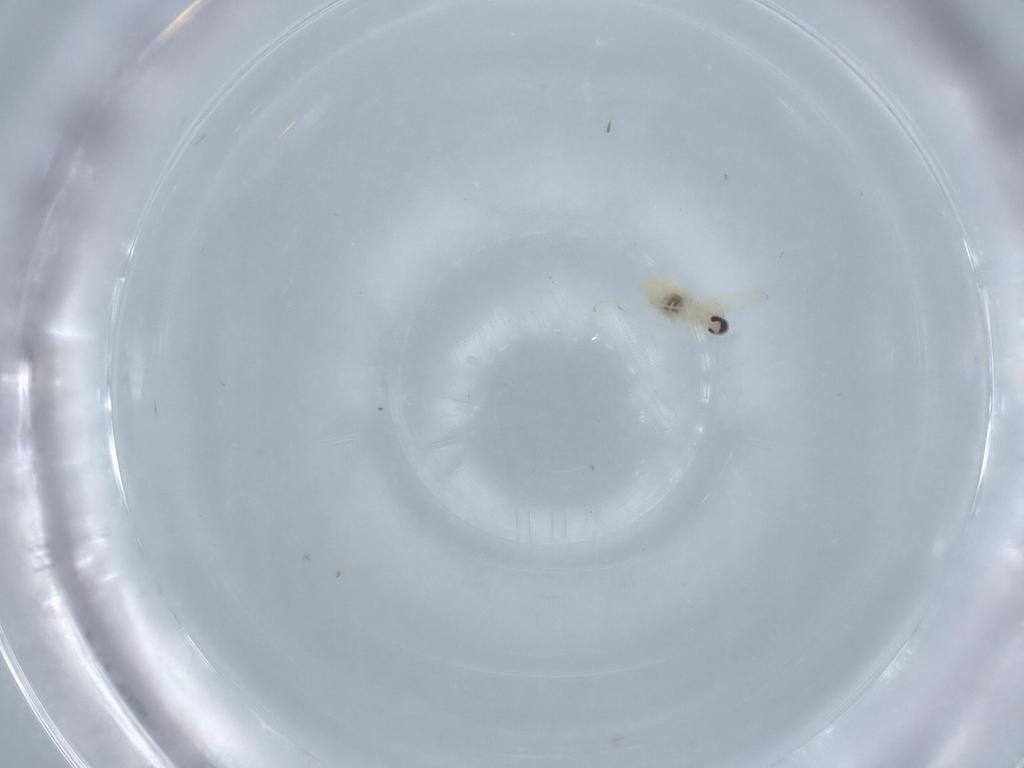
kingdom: Animalia
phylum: Arthropoda
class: Insecta
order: Diptera
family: Cecidomyiidae
